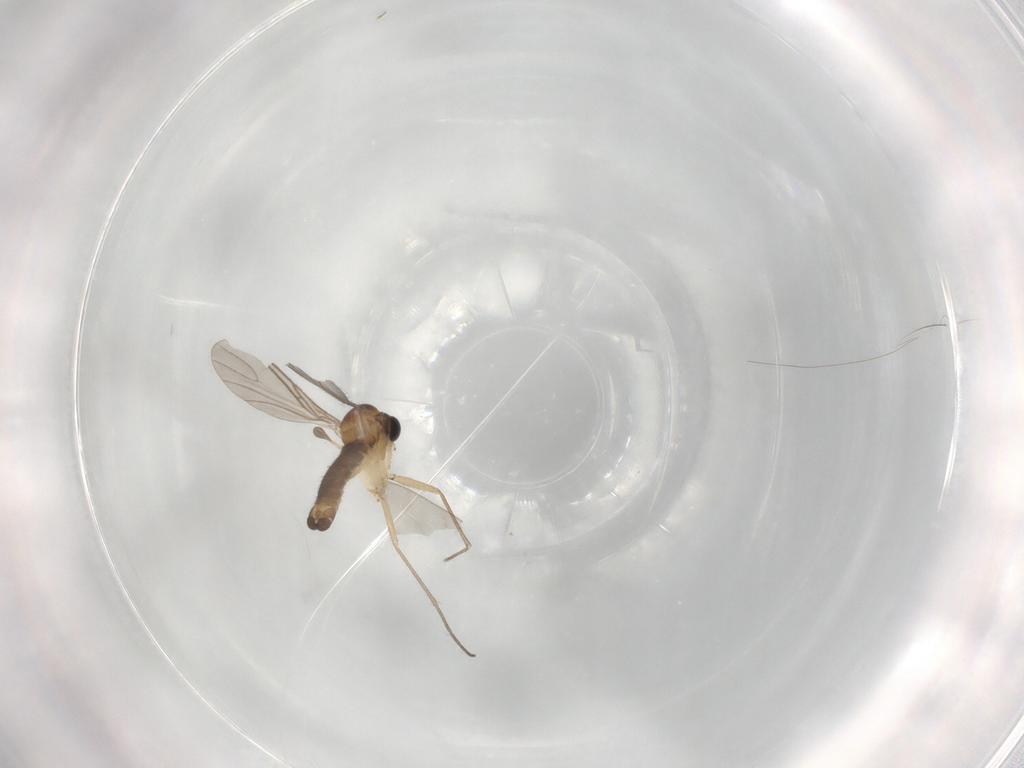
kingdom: Animalia
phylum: Arthropoda
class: Insecta
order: Diptera
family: Sciaridae
